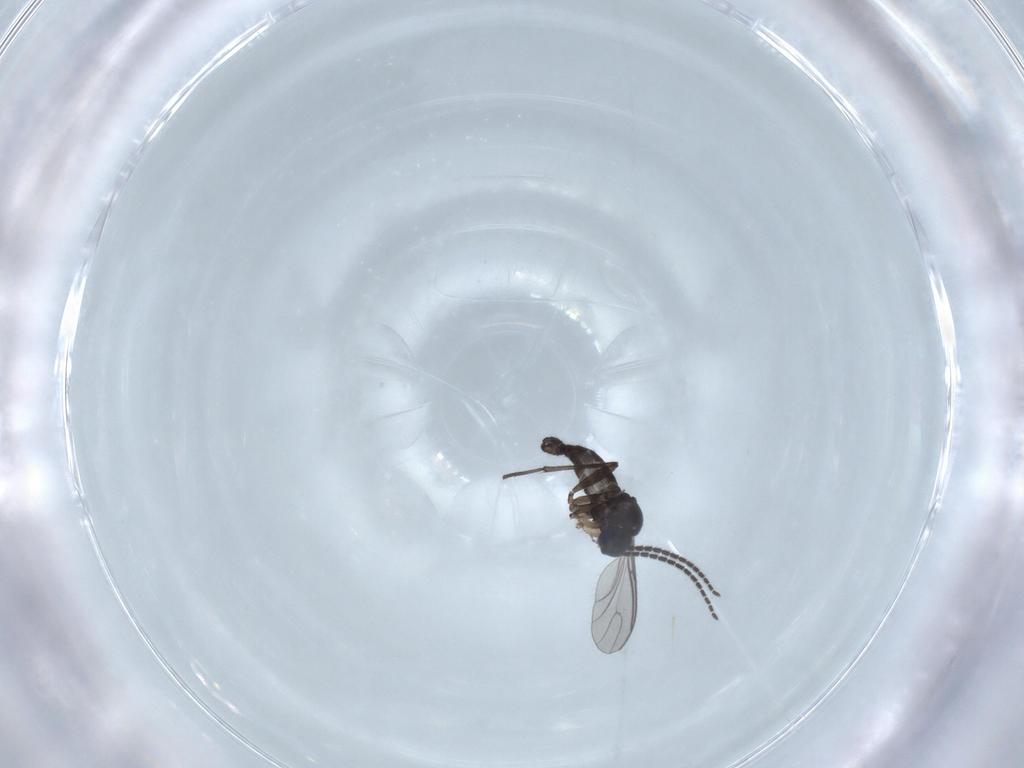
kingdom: Animalia
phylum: Arthropoda
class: Insecta
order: Diptera
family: Sciaridae
